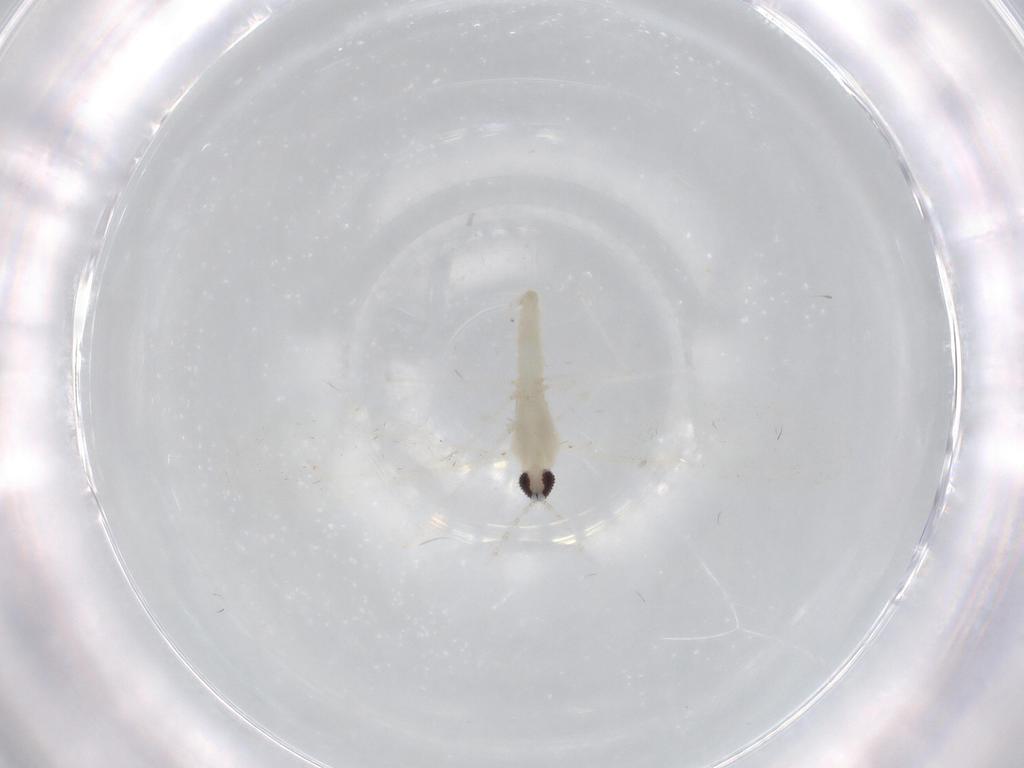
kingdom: Animalia
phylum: Arthropoda
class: Insecta
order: Diptera
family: Cecidomyiidae
